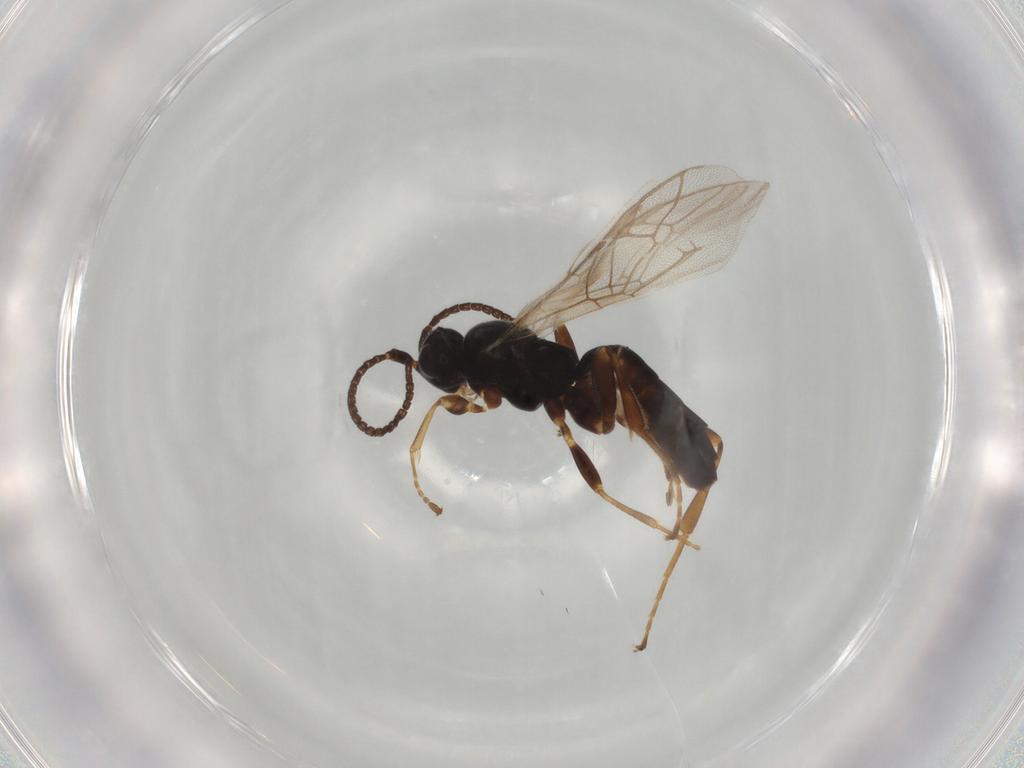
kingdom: Animalia
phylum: Arthropoda
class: Insecta
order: Hymenoptera
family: Ichneumonidae
